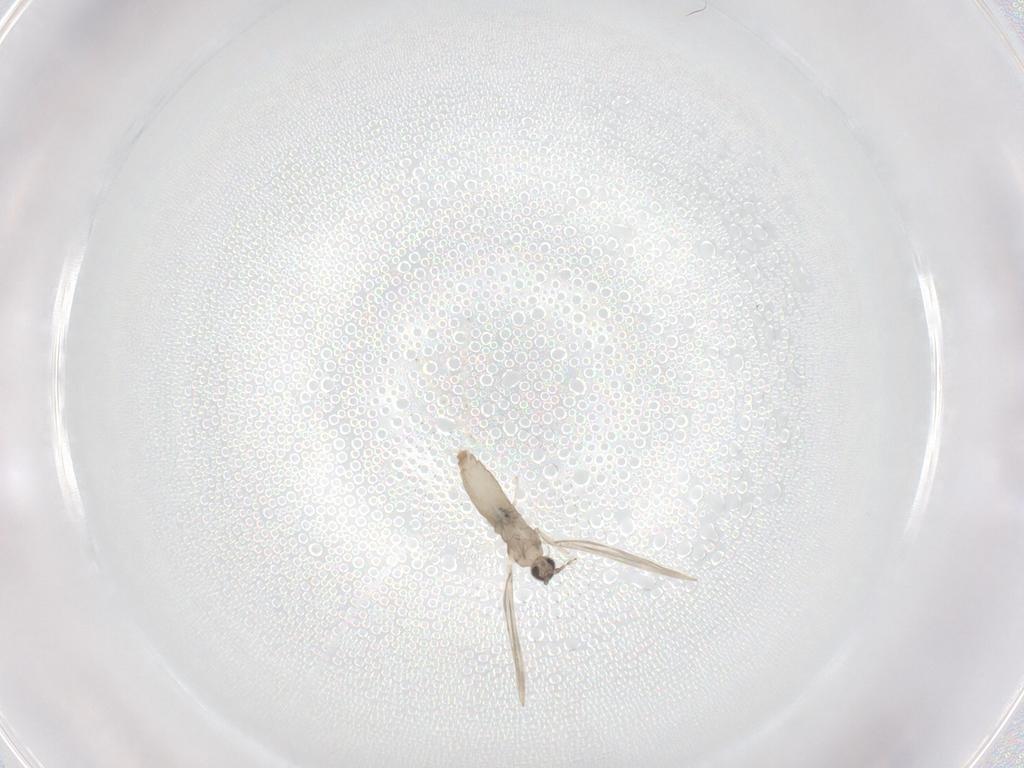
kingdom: Animalia
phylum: Arthropoda
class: Insecta
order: Diptera
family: Cecidomyiidae
